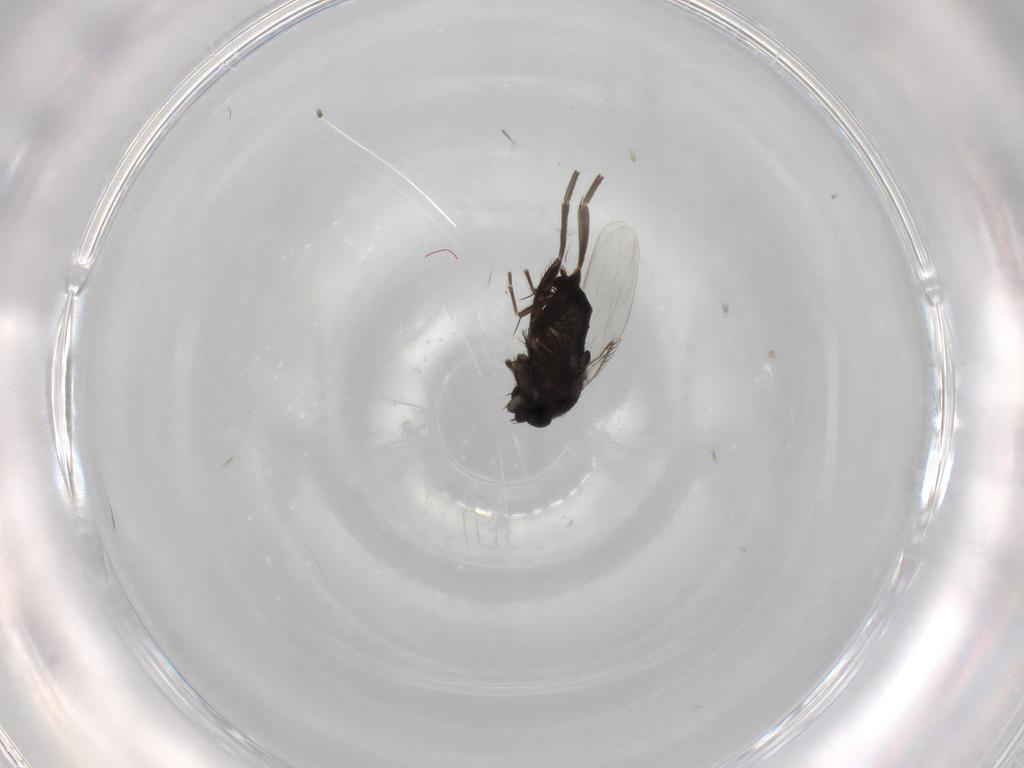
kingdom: Animalia
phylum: Arthropoda
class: Insecta
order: Diptera
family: Phoridae
